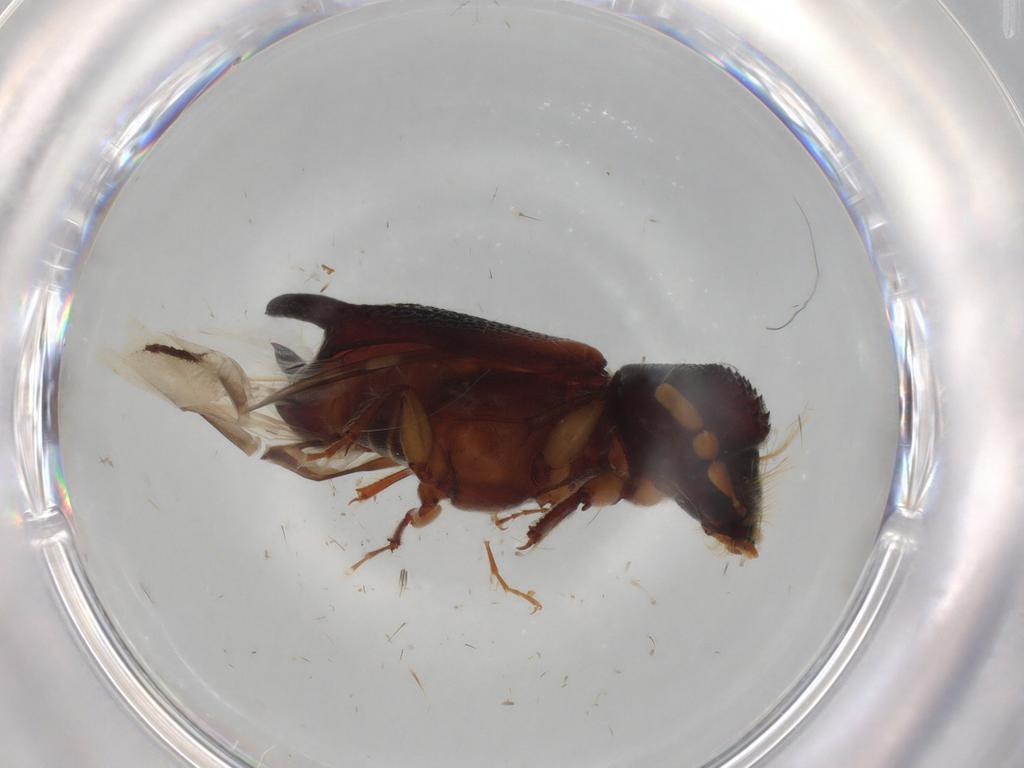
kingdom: Animalia
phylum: Arthropoda
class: Insecta
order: Coleoptera
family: Bostrichidae
